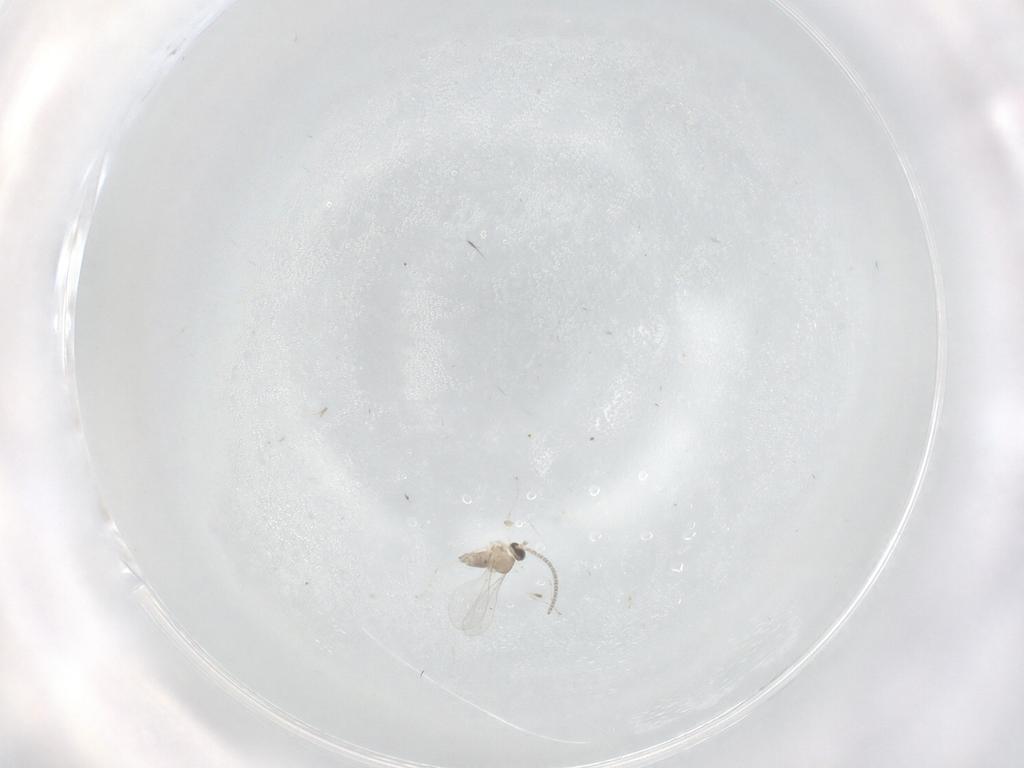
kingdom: Animalia
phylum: Arthropoda
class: Insecta
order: Diptera
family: Cecidomyiidae
